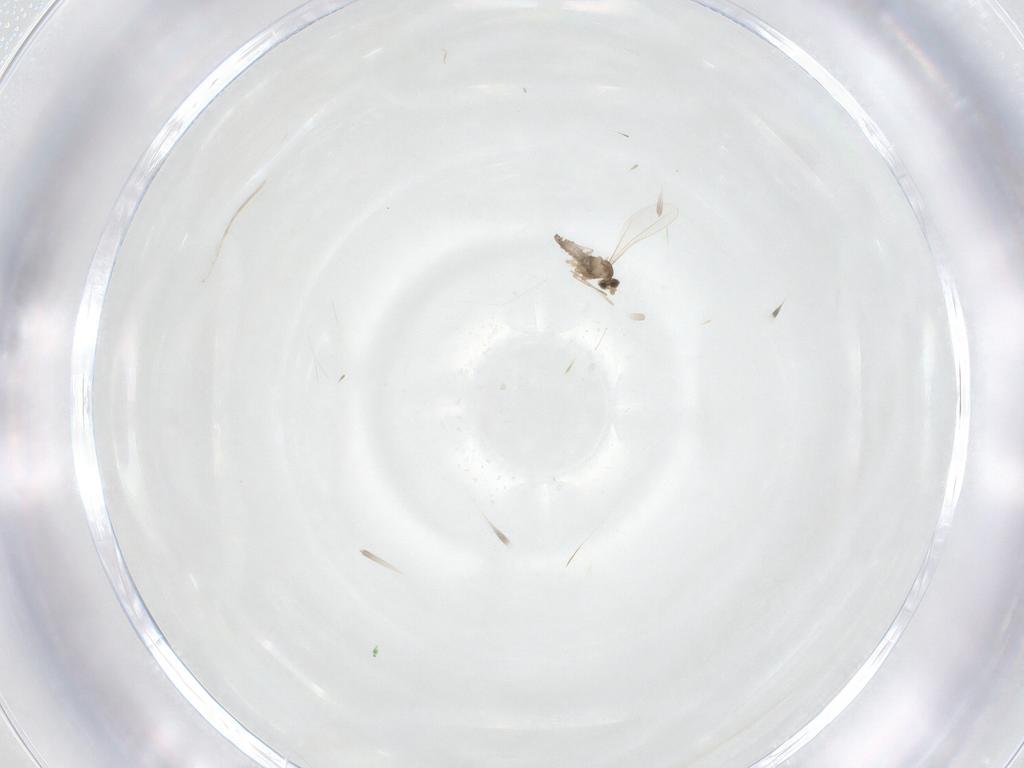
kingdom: Animalia
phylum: Arthropoda
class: Insecta
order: Diptera
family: Cecidomyiidae
